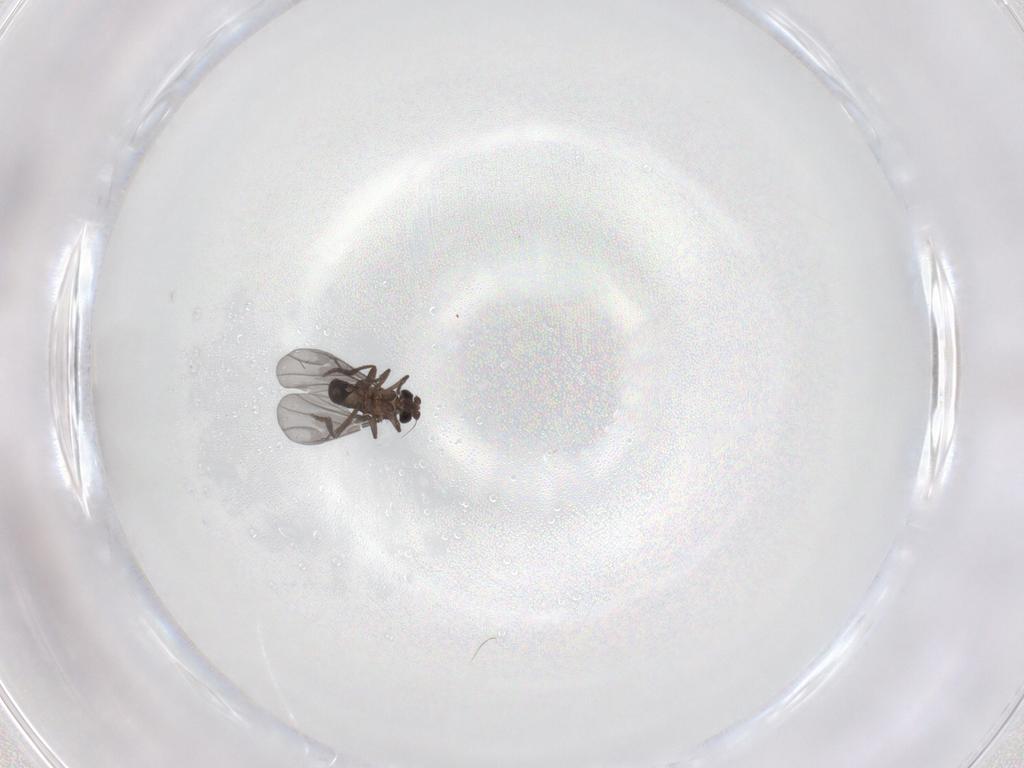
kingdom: Animalia
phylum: Arthropoda
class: Insecta
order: Diptera
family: Phoridae
